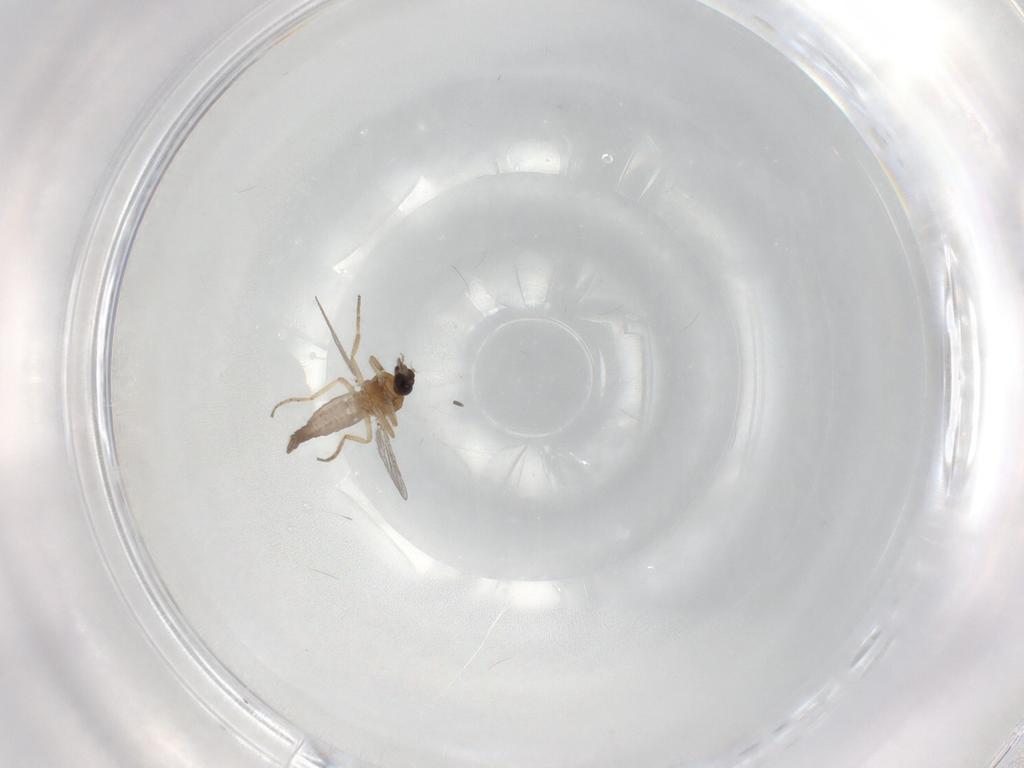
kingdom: Animalia
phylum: Arthropoda
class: Insecta
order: Diptera
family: Ceratopogonidae
